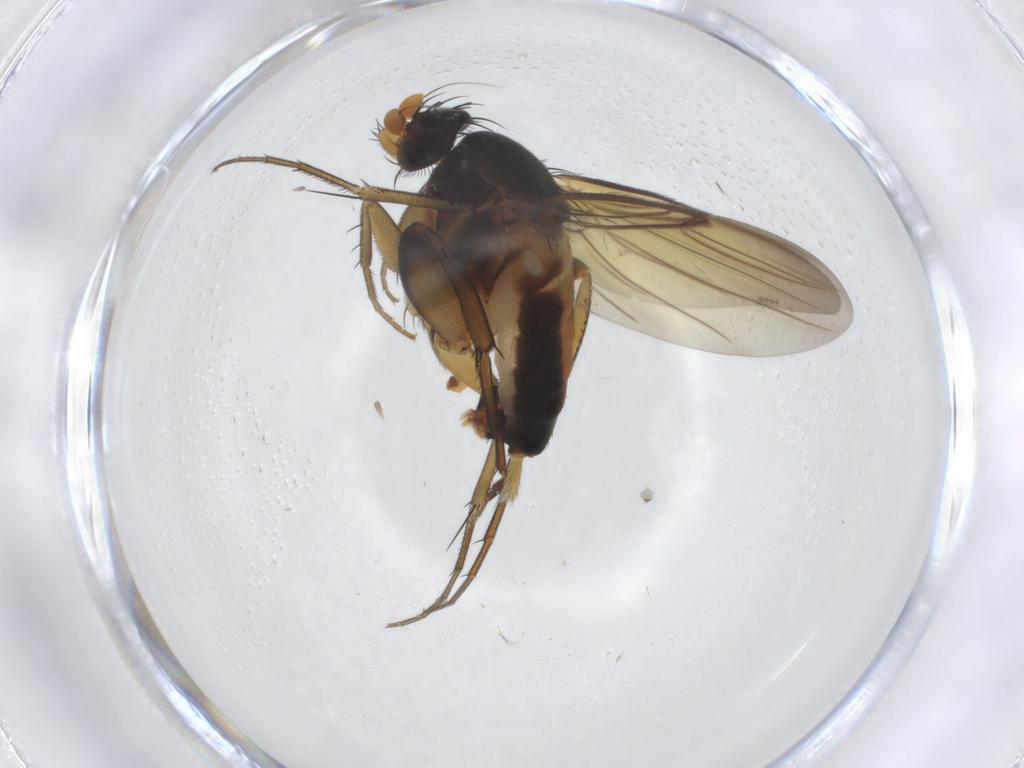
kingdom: Animalia
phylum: Arthropoda
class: Insecta
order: Diptera
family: Phoridae
